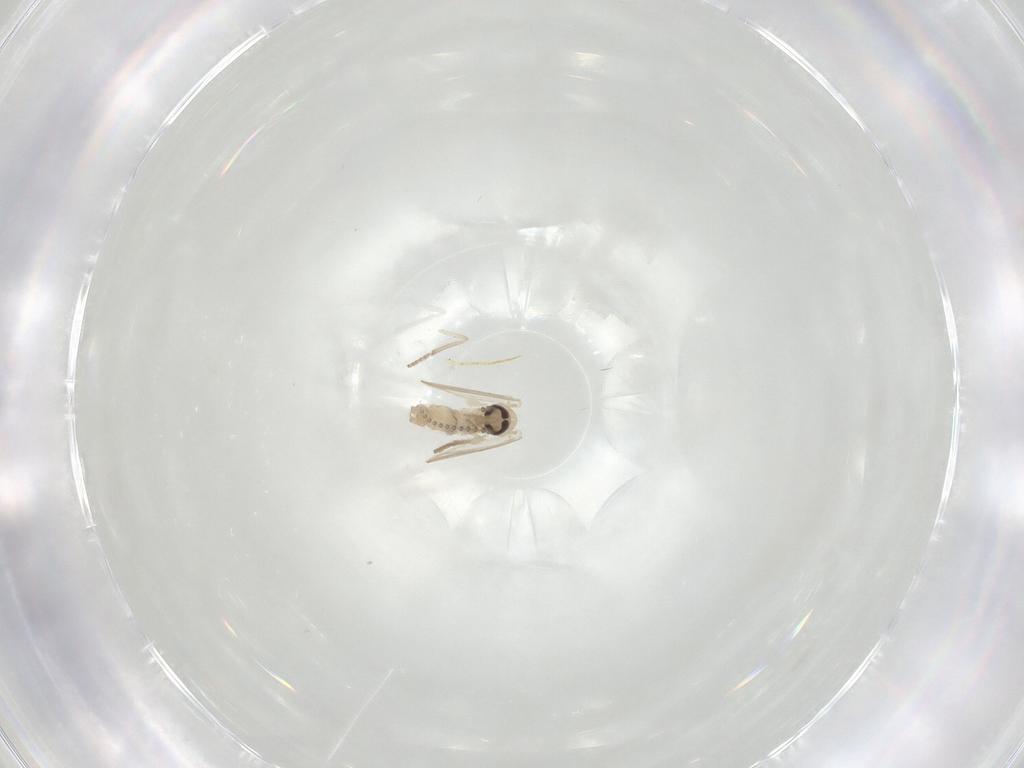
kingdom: Animalia
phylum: Arthropoda
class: Insecta
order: Diptera
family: Psychodidae
